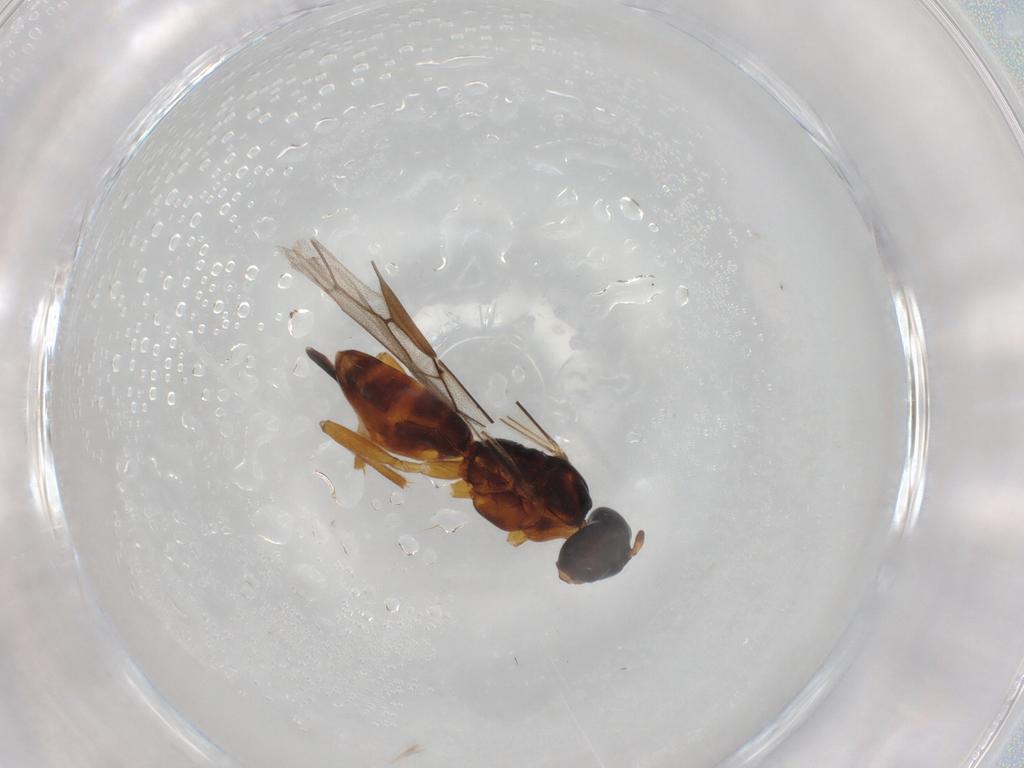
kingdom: Animalia
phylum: Arthropoda
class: Insecta
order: Hymenoptera
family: Braconidae
